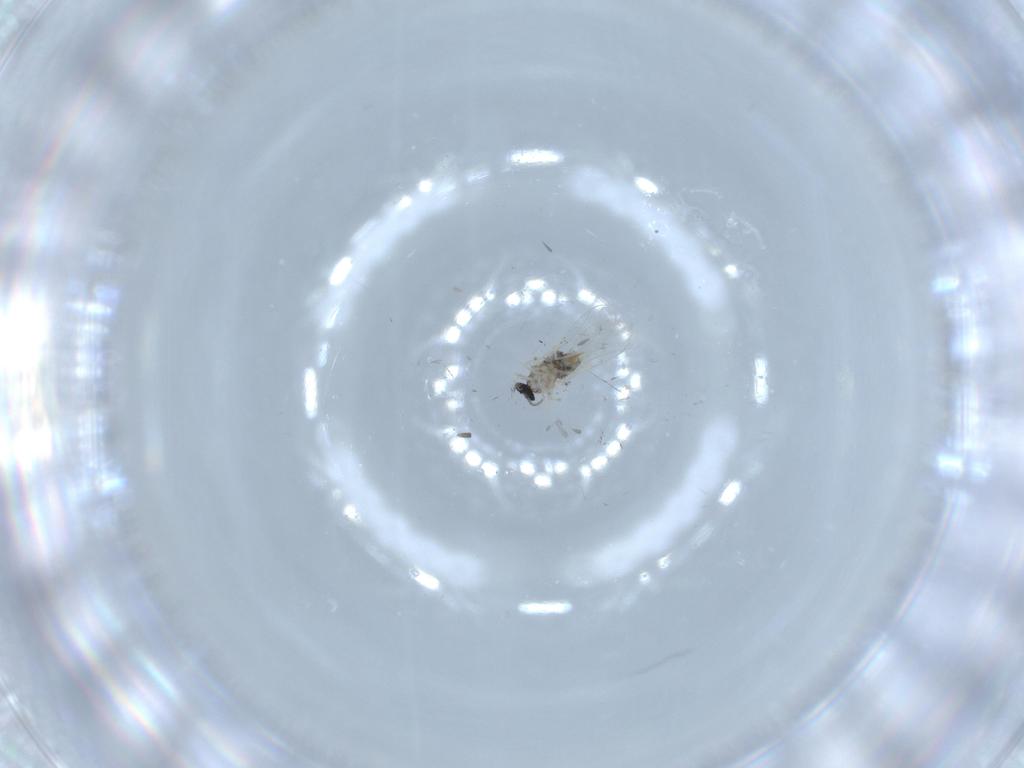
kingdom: Animalia
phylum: Arthropoda
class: Insecta
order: Diptera
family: Cecidomyiidae
